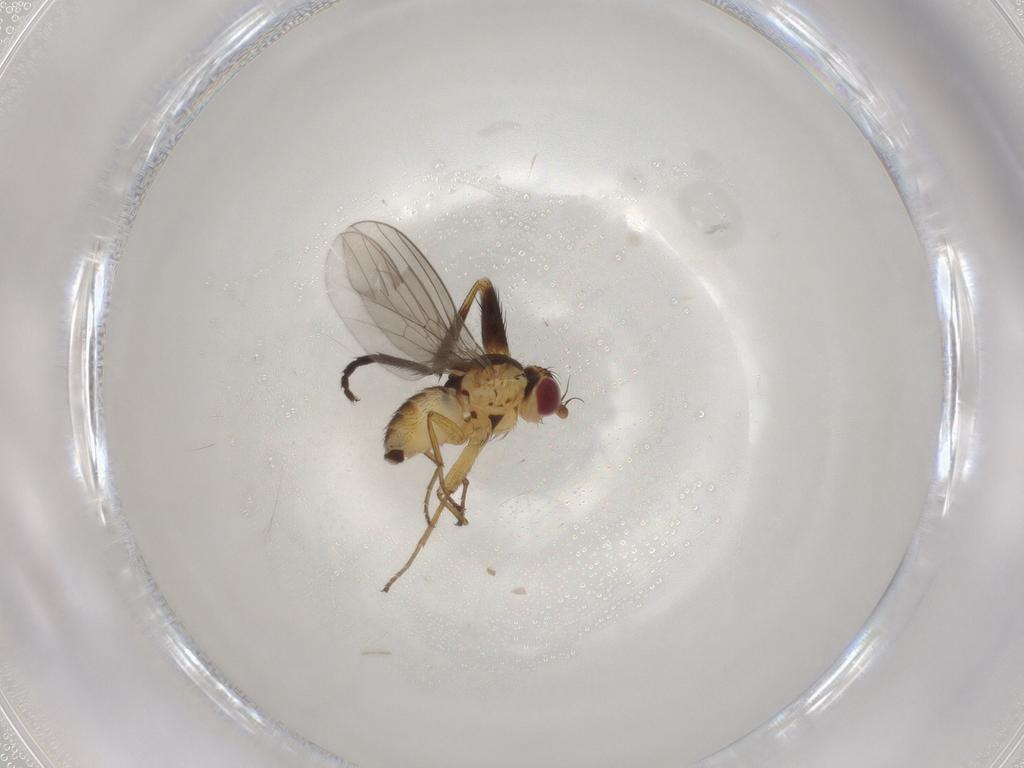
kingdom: Animalia
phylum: Arthropoda
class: Insecta
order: Diptera
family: Agromyzidae
